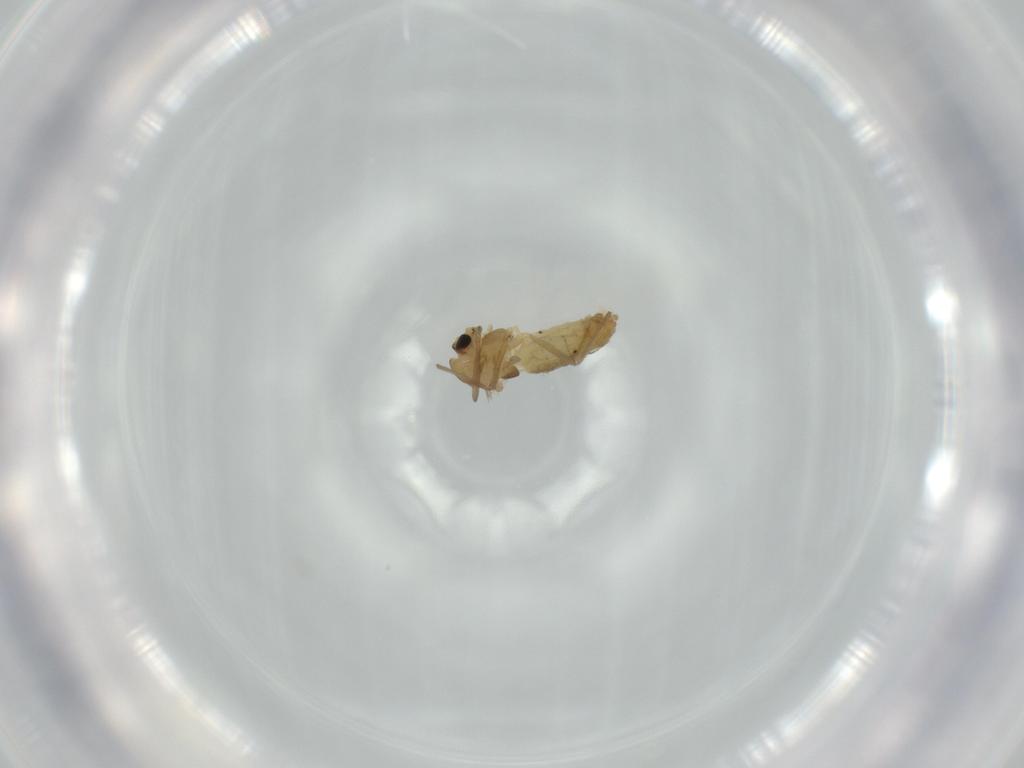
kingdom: Animalia
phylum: Arthropoda
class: Insecta
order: Diptera
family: Chironomidae
